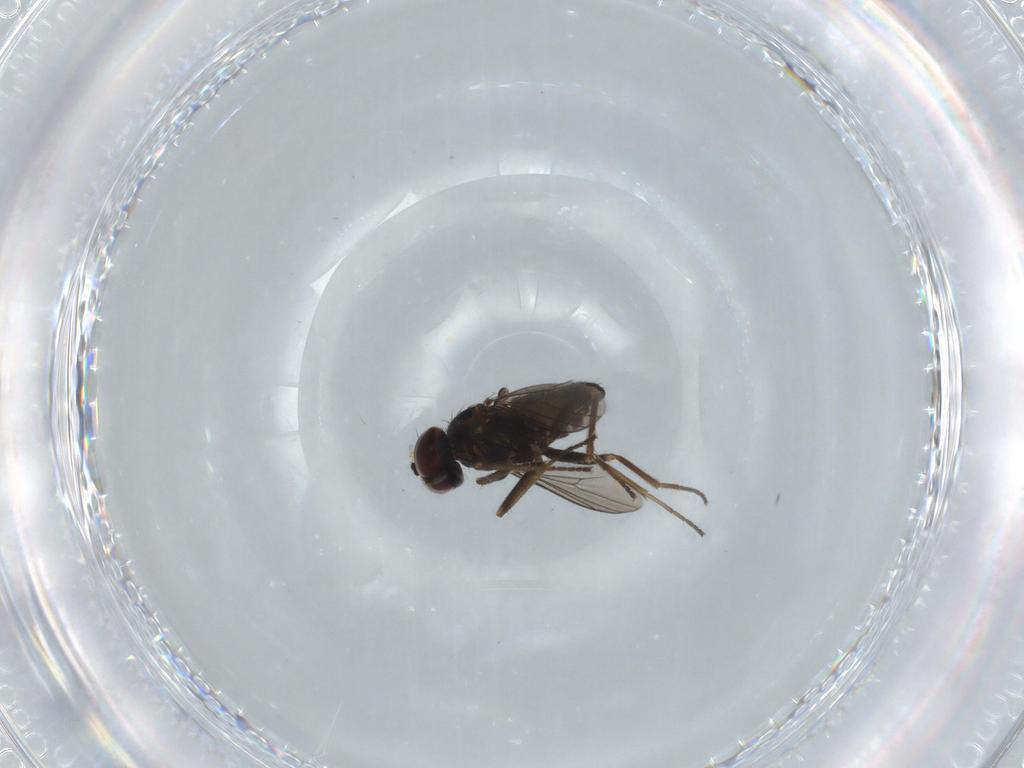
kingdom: Animalia
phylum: Arthropoda
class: Insecta
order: Diptera
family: Dolichopodidae
